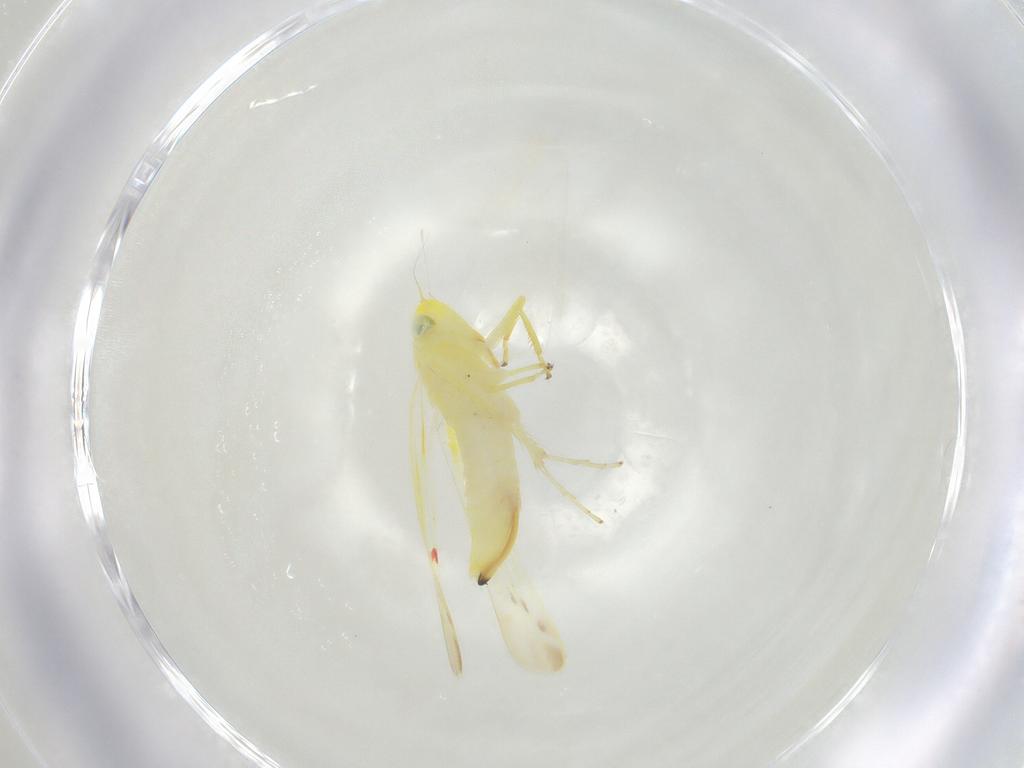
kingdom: Animalia
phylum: Arthropoda
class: Insecta
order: Hemiptera
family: Cicadellidae
